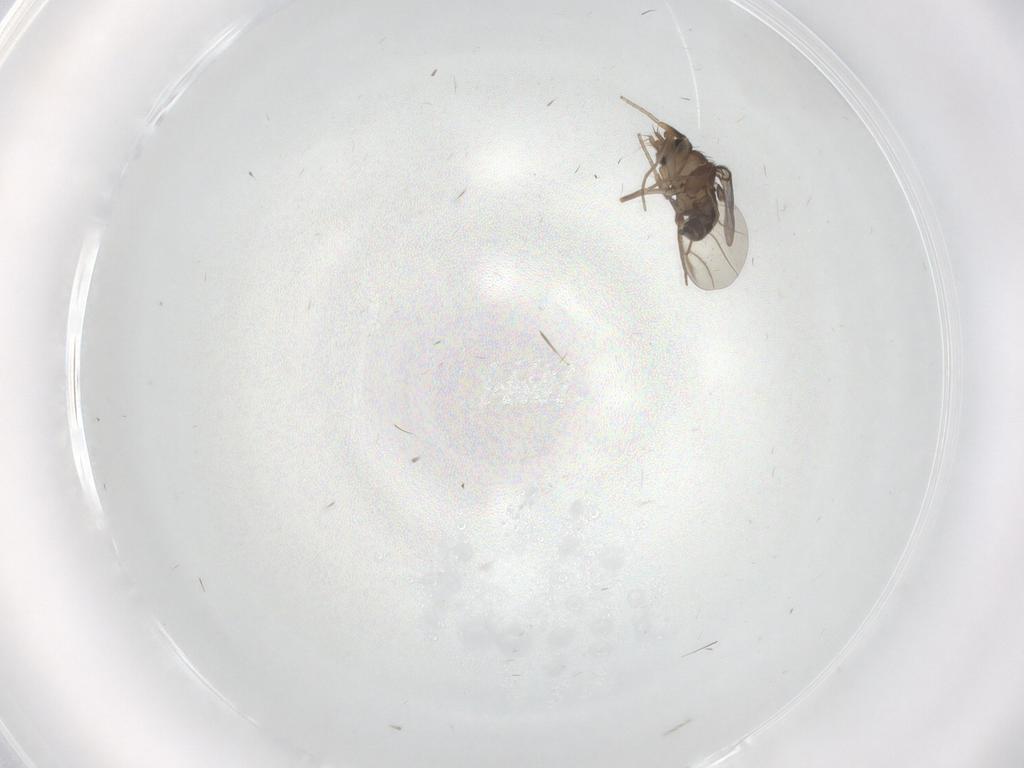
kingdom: Animalia
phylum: Arthropoda
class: Insecta
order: Diptera
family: Phoridae
